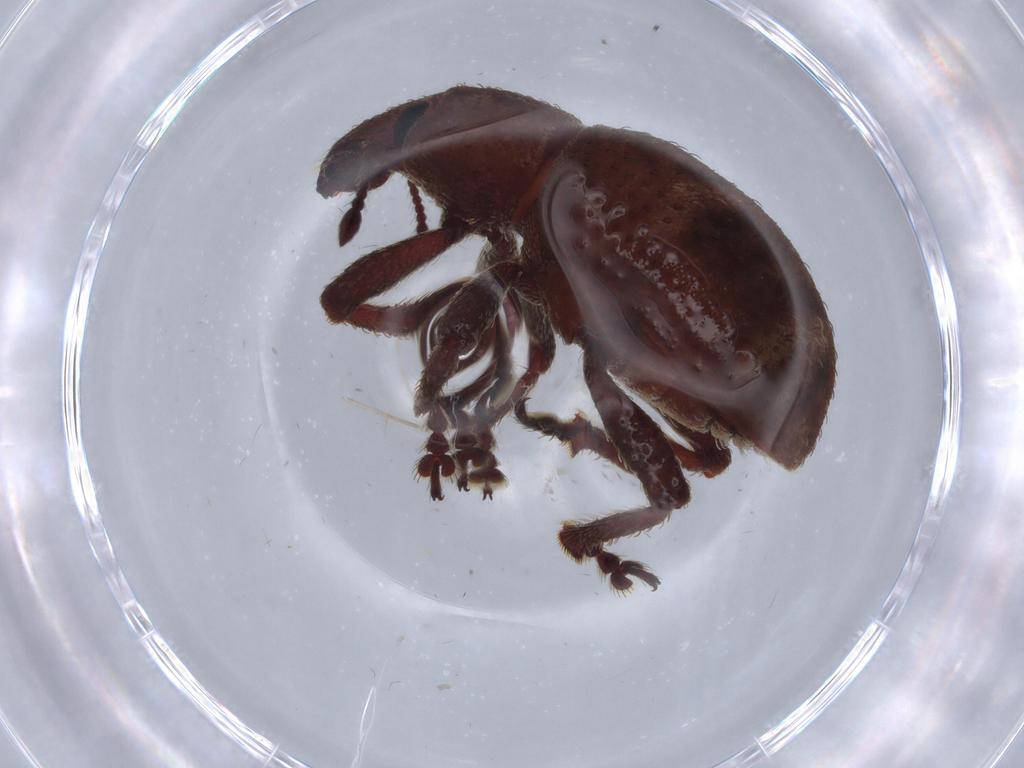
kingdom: Animalia
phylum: Arthropoda
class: Insecta
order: Coleoptera
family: Curculionidae
